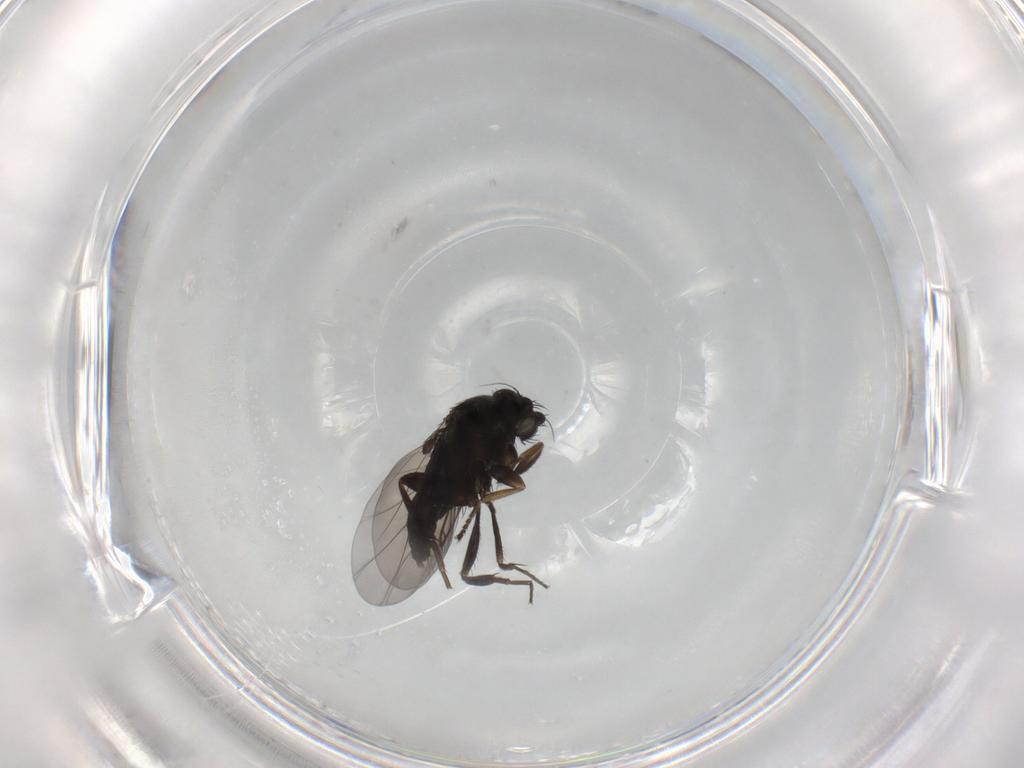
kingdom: Animalia
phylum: Arthropoda
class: Insecta
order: Diptera
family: Phoridae
